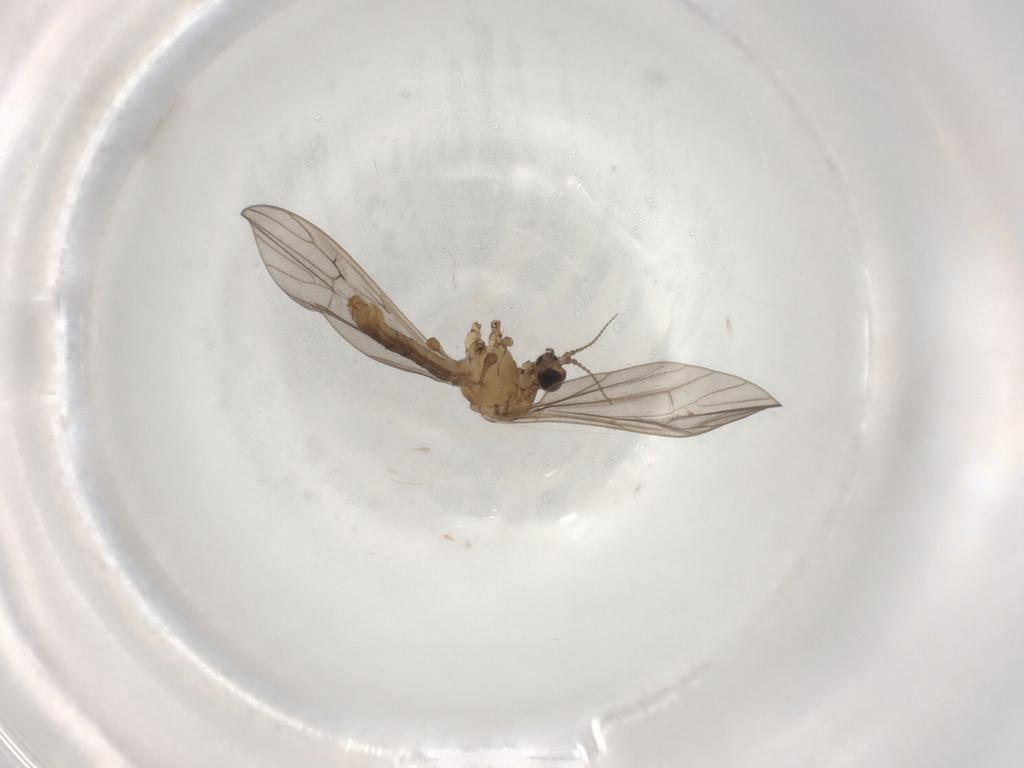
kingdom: Animalia
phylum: Arthropoda
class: Insecta
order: Diptera
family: Limoniidae
